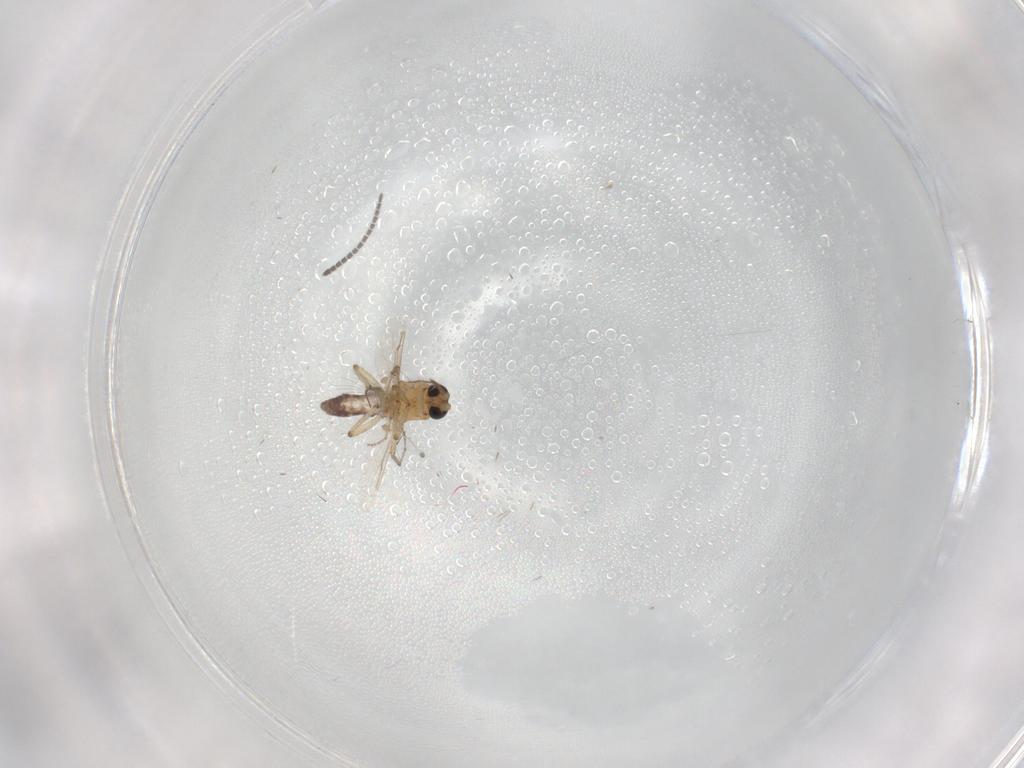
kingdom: Animalia
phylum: Arthropoda
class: Insecta
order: Diptera
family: Ceratopogonidae
